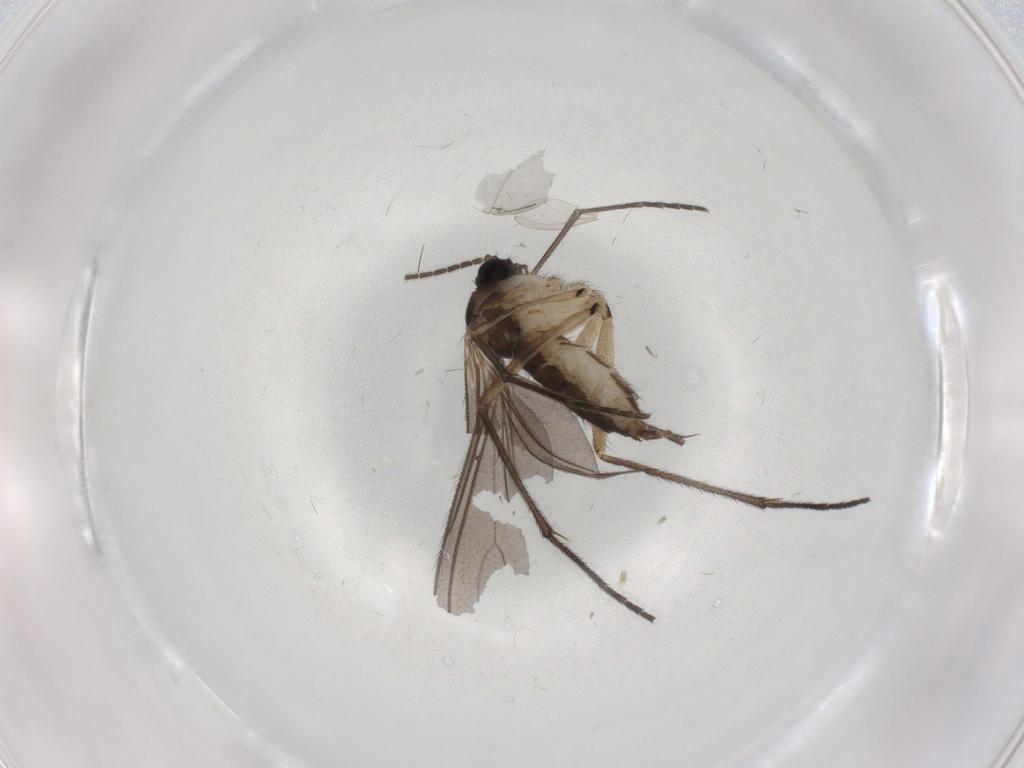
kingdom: Animalia
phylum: Arthropoda
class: Insecta
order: Diptera
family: Sciaridae
